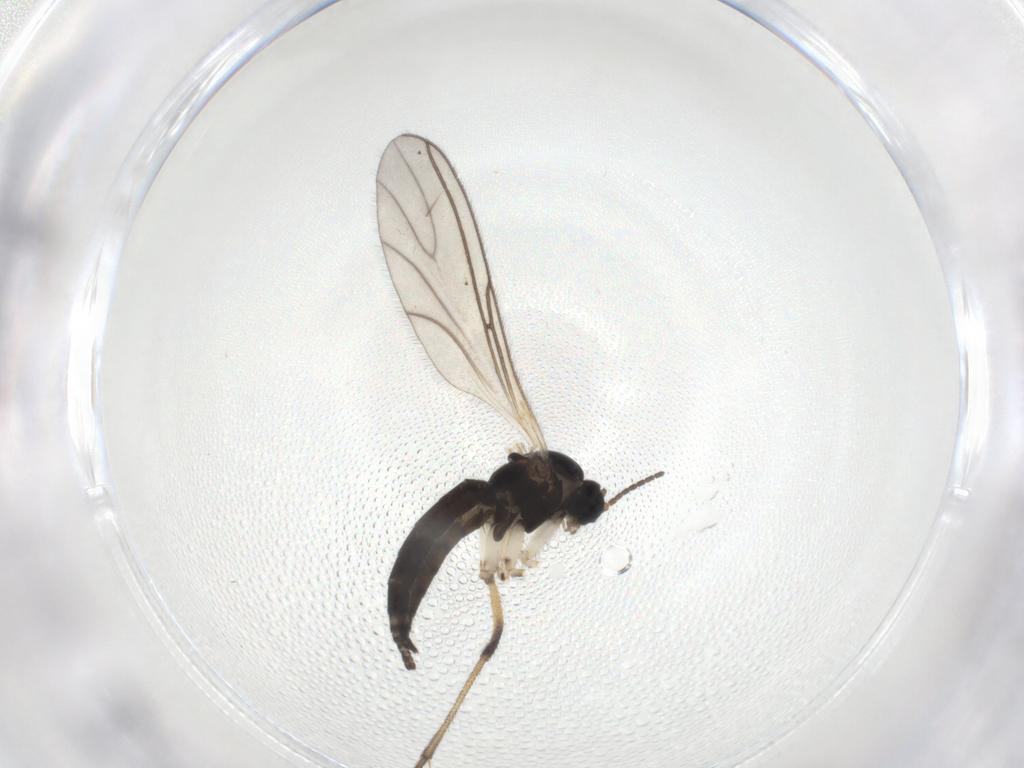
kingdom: Animalia
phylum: Arthropoda
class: Insecta
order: Diptera
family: Sciaridae
